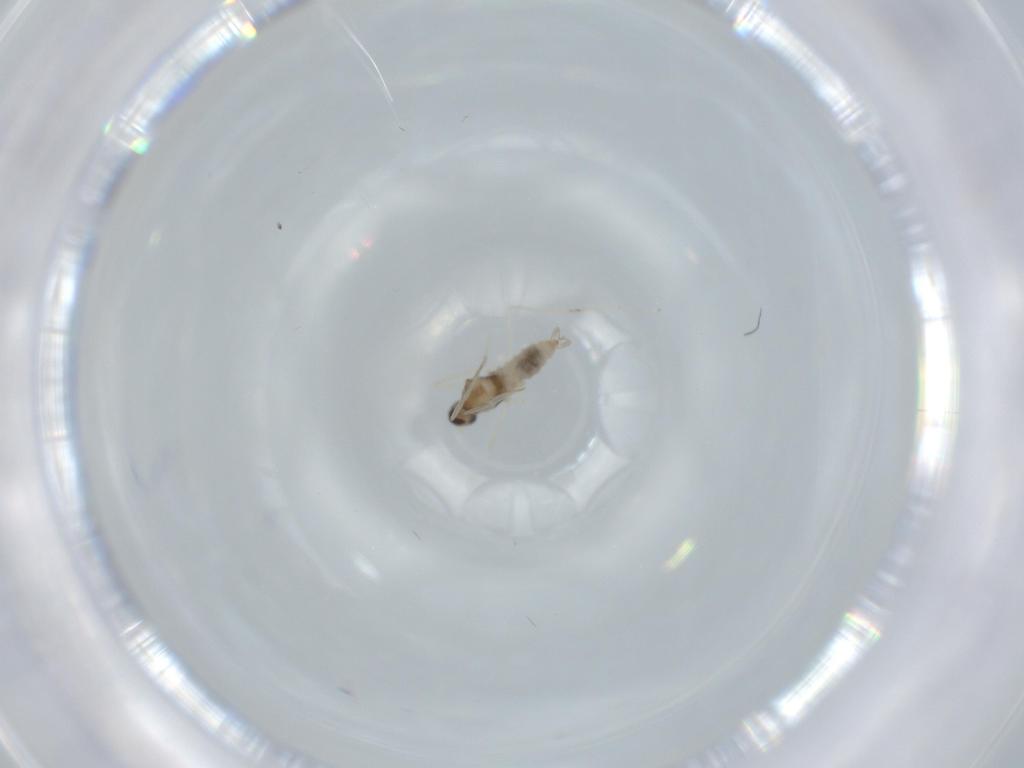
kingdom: Animalia
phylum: Arthropoda
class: Insecta
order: Diptera
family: Cecidomyiidae
